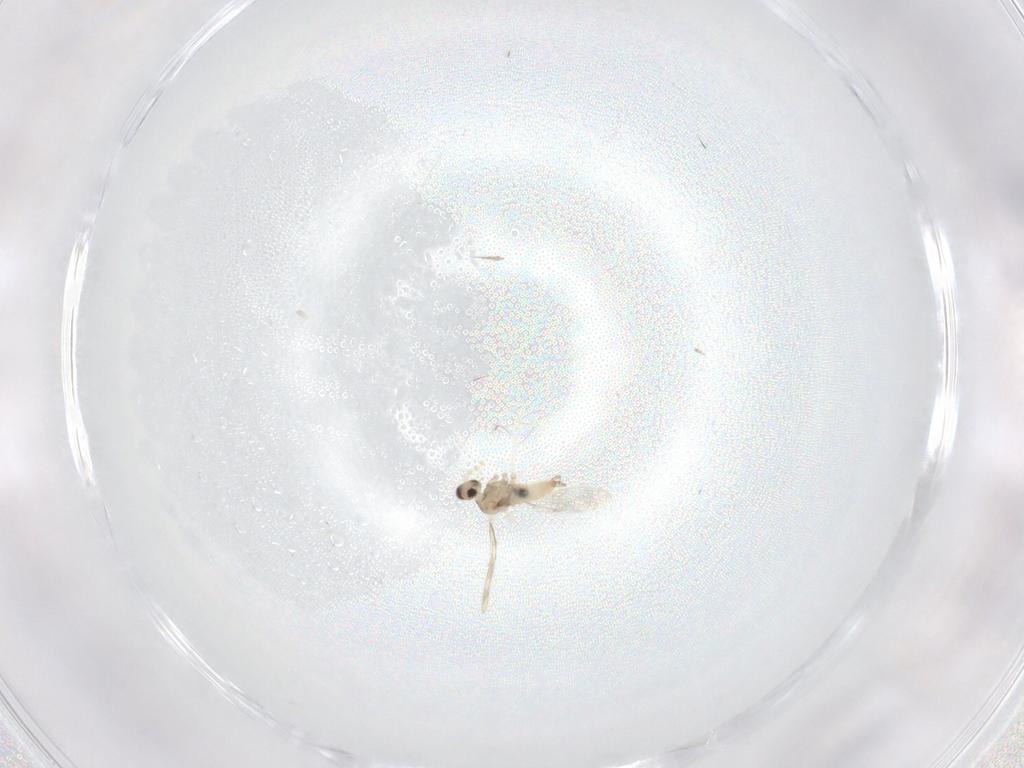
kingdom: Animalia
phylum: Arthropoda
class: Insecta
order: Diptera
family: Cecidomyiidae
